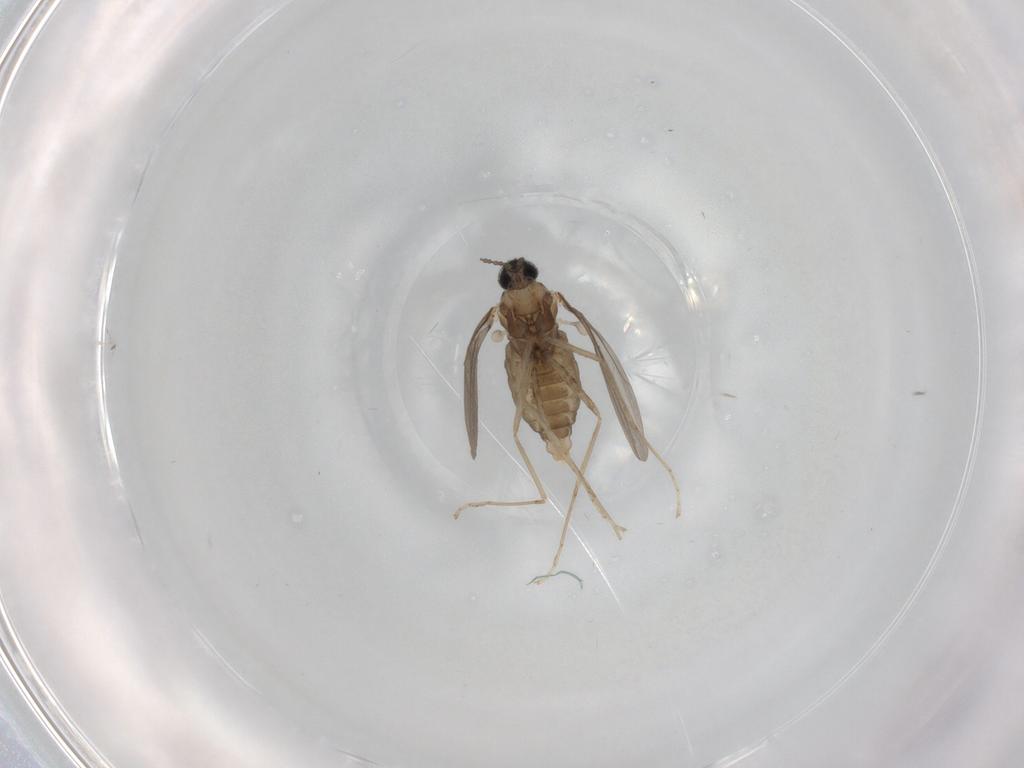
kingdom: Animalia
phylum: Arthropoda
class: Insecta
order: Diptera
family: Cecidomyiidae
